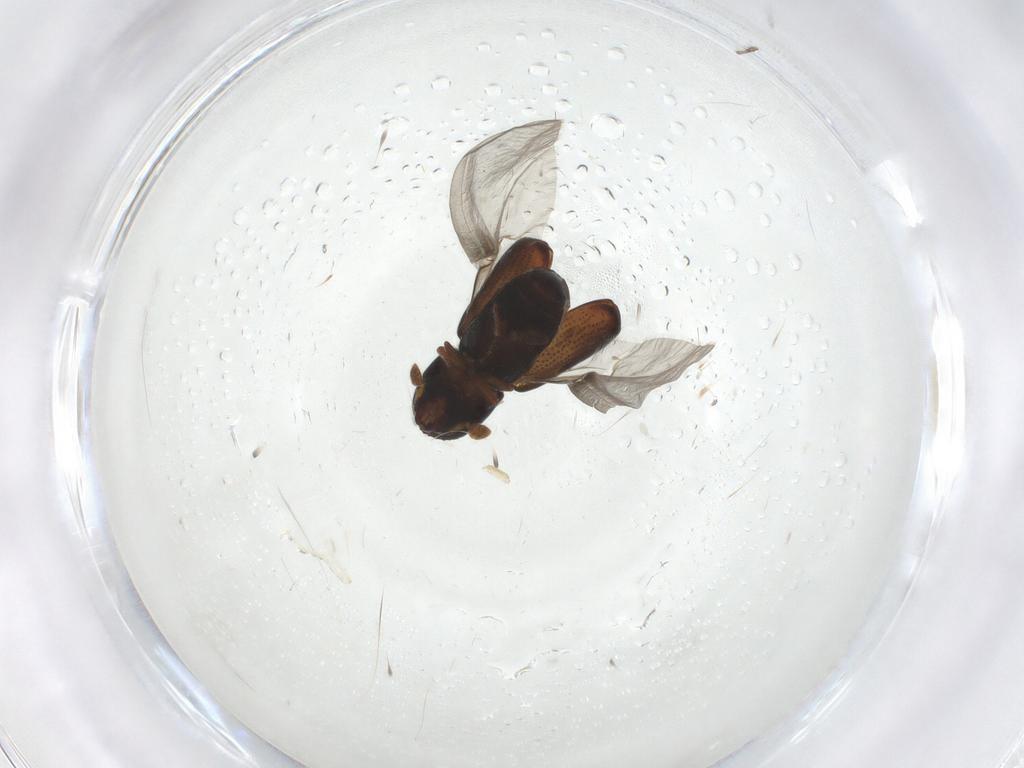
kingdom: Animalia
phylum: Arthropoda
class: Insecta
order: Coleoptera
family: Curculionidae
